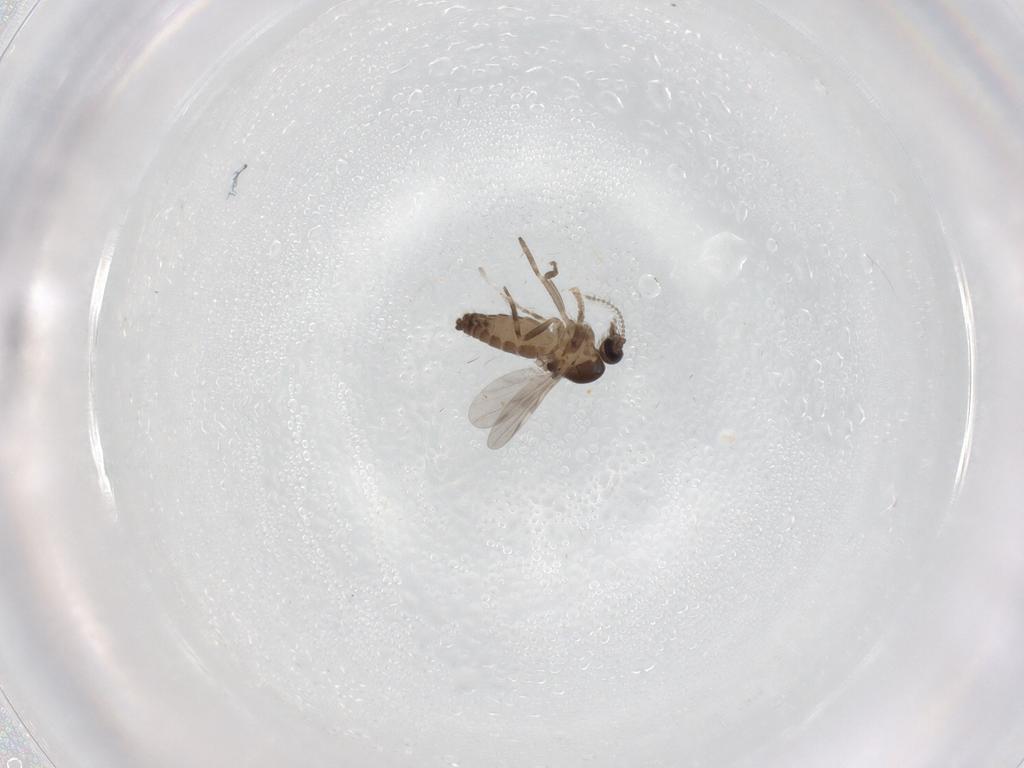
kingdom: Animalia
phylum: Arthropoda
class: Insecta
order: Diptera
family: Ceratopogonidae
